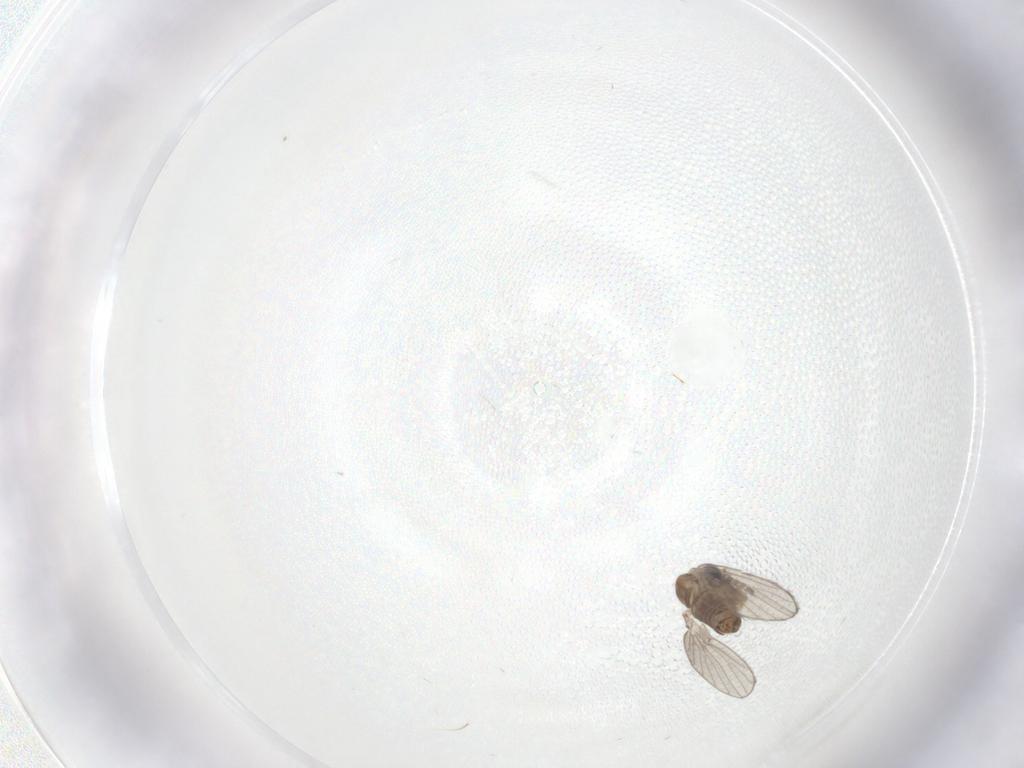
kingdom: Animalia
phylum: Arthropoda
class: Insecta
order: Diptera
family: Psychodidae
